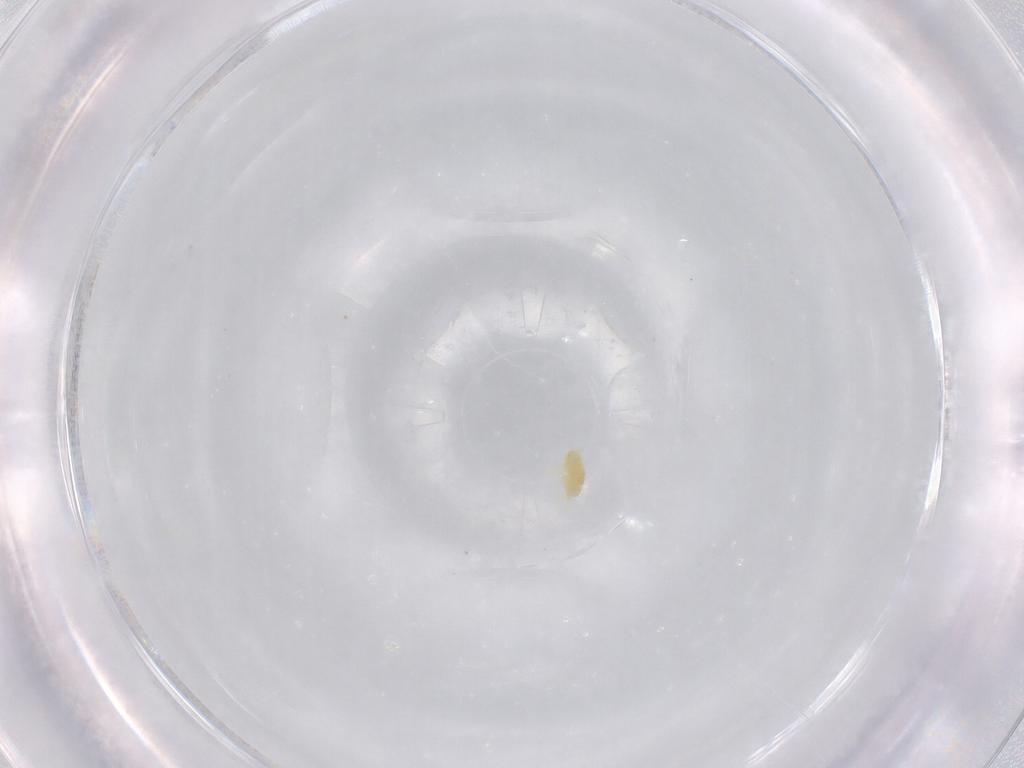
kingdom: Animalia
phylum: Arthropoda
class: Arachnida
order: Trombidiformes
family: Eupodidae
